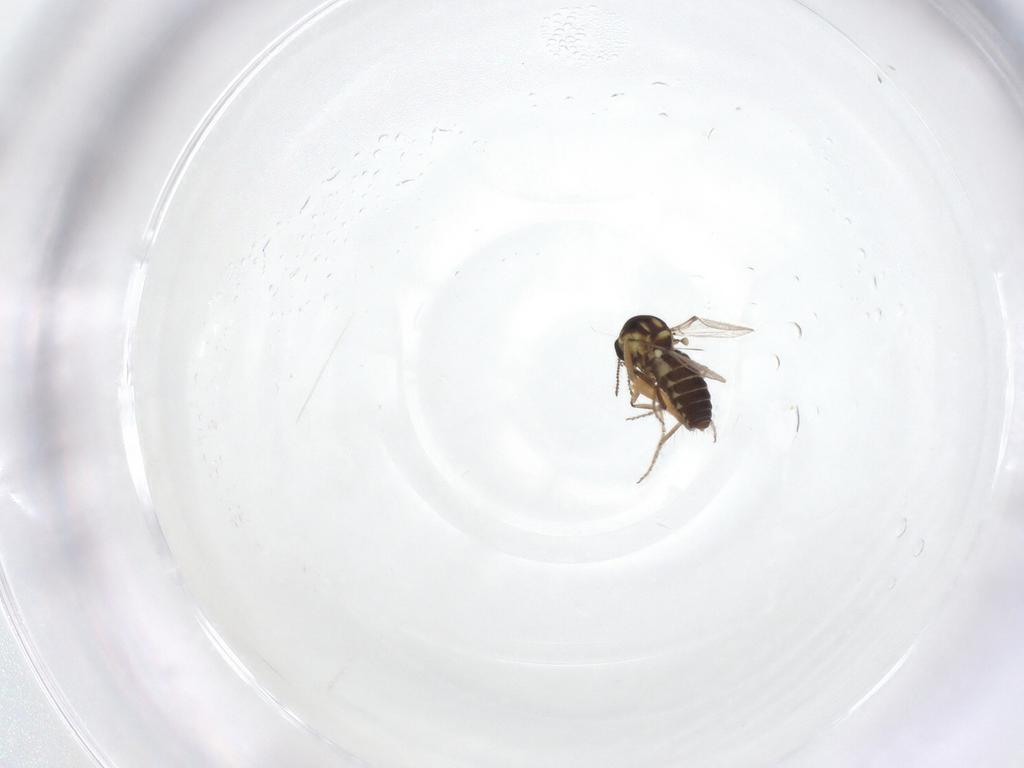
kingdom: Animalia
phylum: Arthropoda
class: Insecta
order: Diptera
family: Ceratopogonidae
